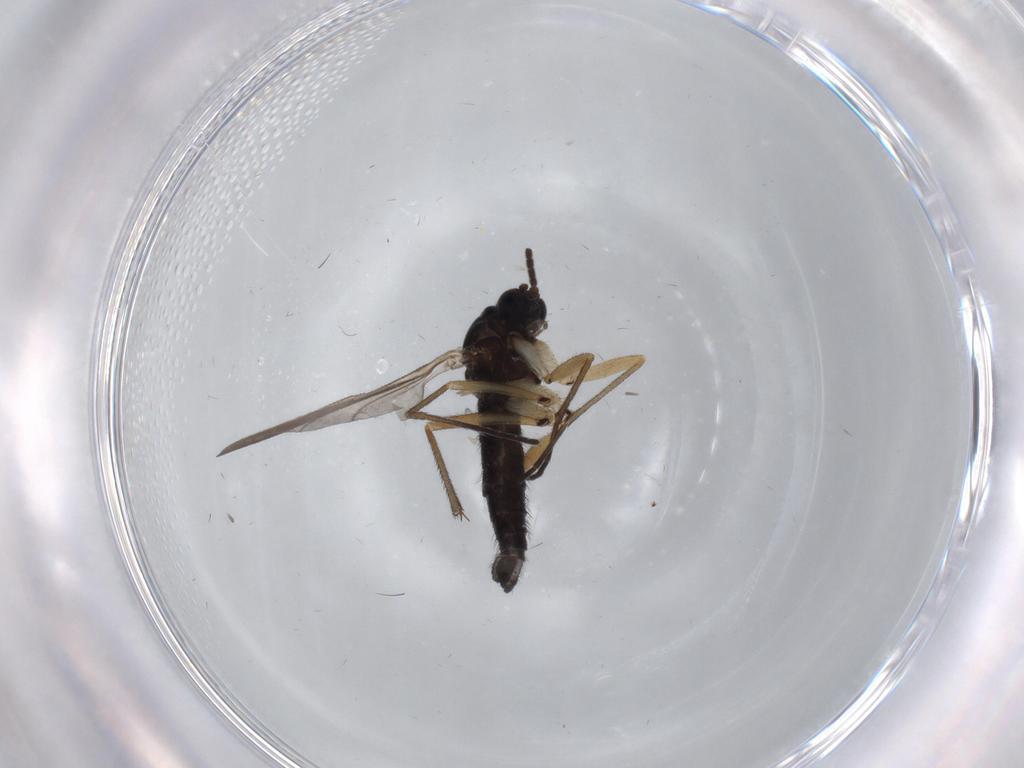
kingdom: Animalia
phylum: Arthropoda
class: Insecta
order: Diptera
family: Sciaridae
